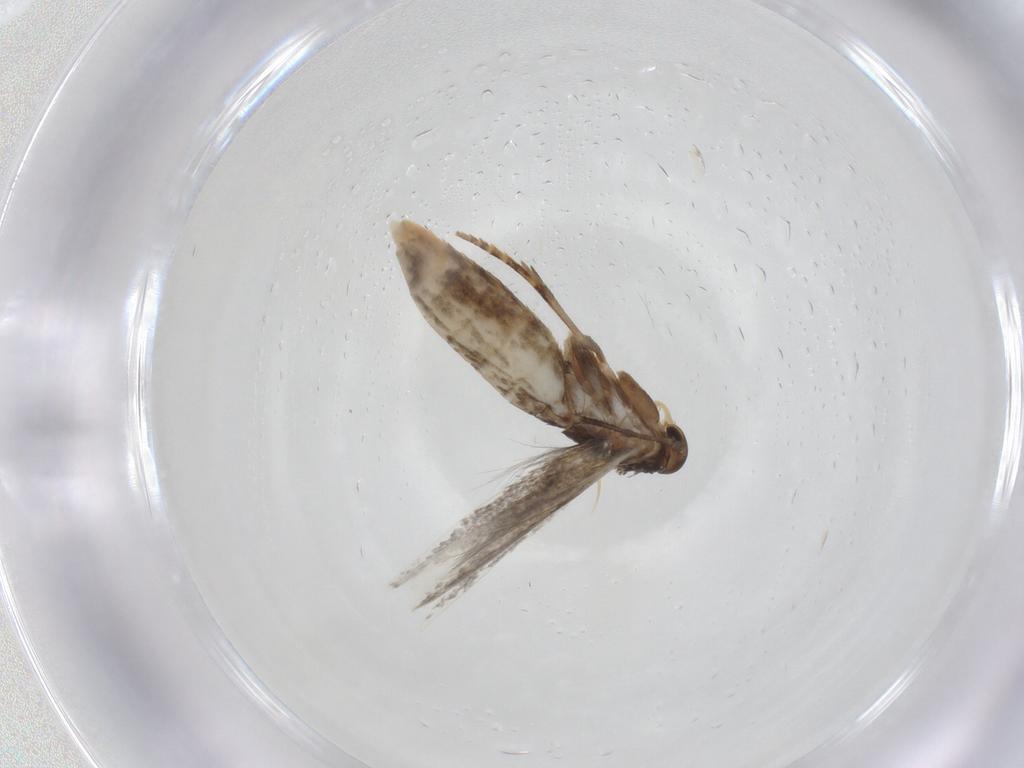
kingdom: Animalia
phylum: Arthropoda
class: Insecta
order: Lepidoptera
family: Elachistidae
